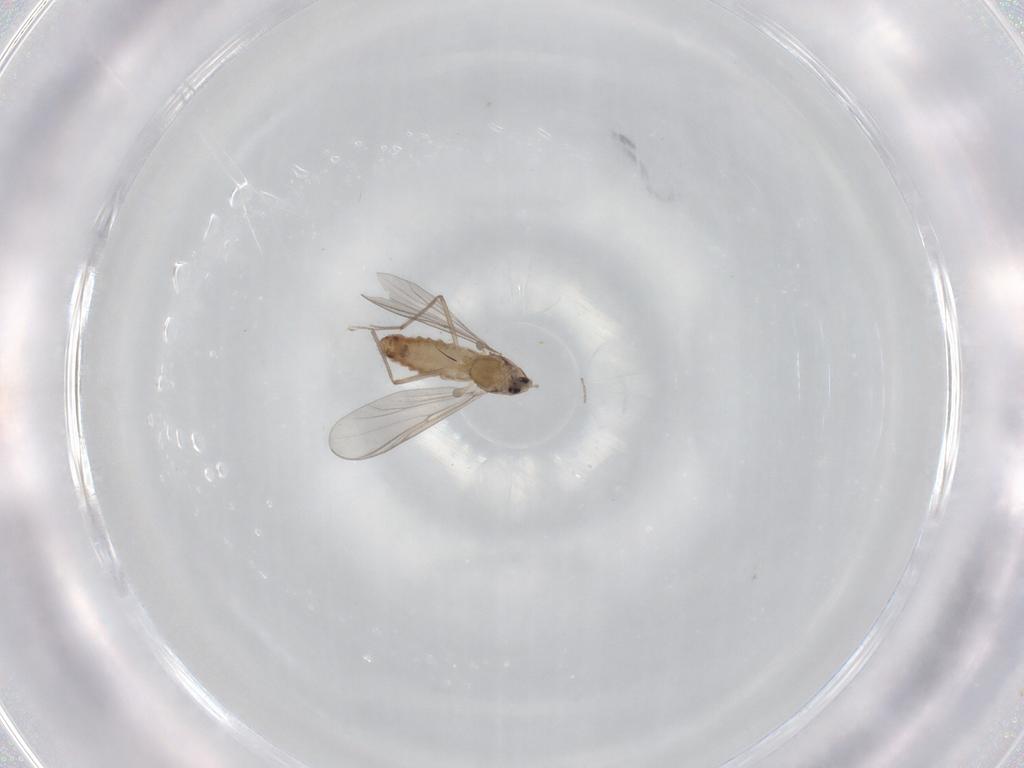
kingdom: Animalia
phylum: Arthropoda
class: Insecta
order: Diptera
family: Chironomidae
